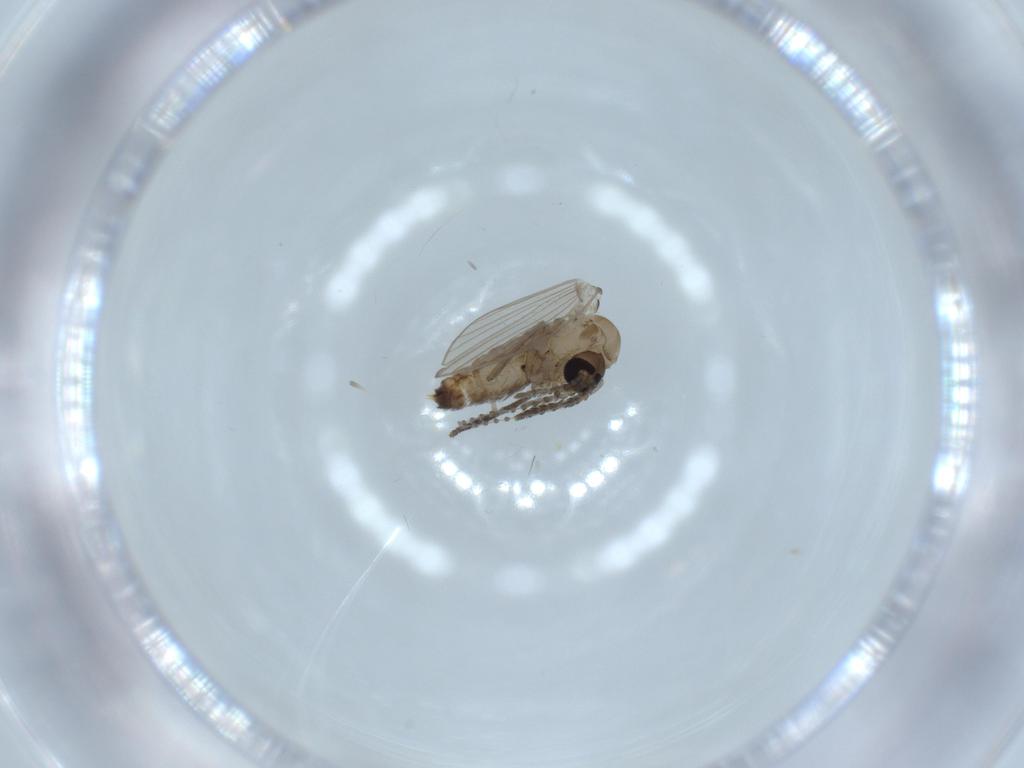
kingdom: Animalia
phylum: Arthropoda
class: Insecta
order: Diptera
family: Psychodidae
